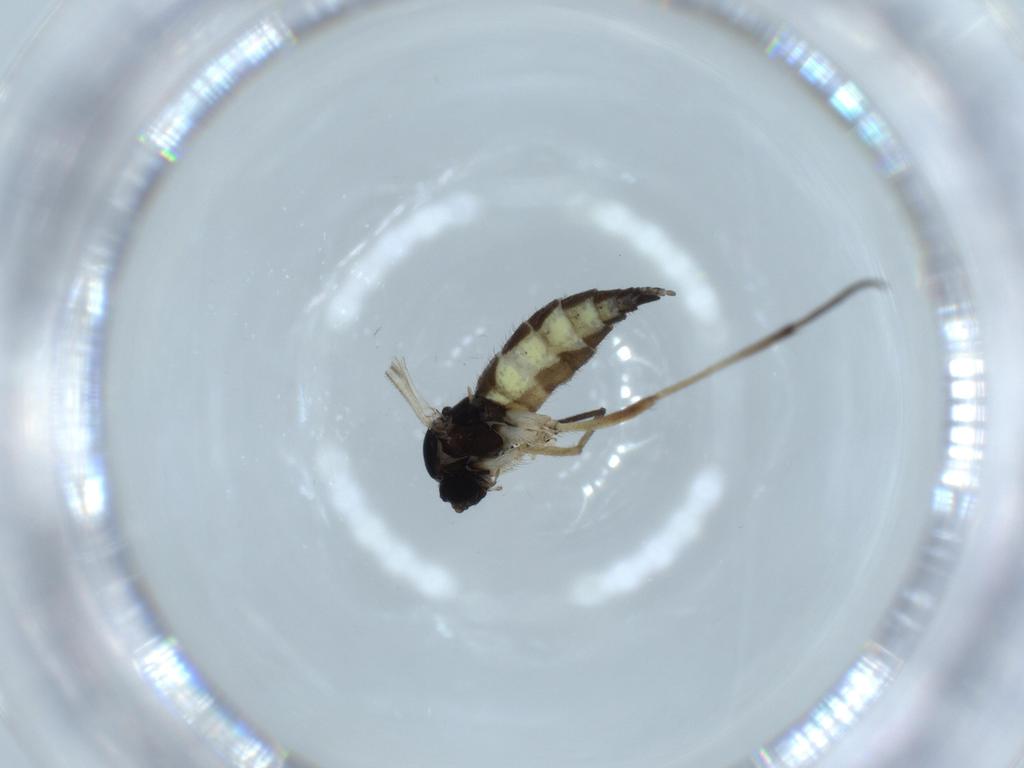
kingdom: Animalia
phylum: Arthropoda
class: Insecta
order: Diptera
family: Sciaridae
